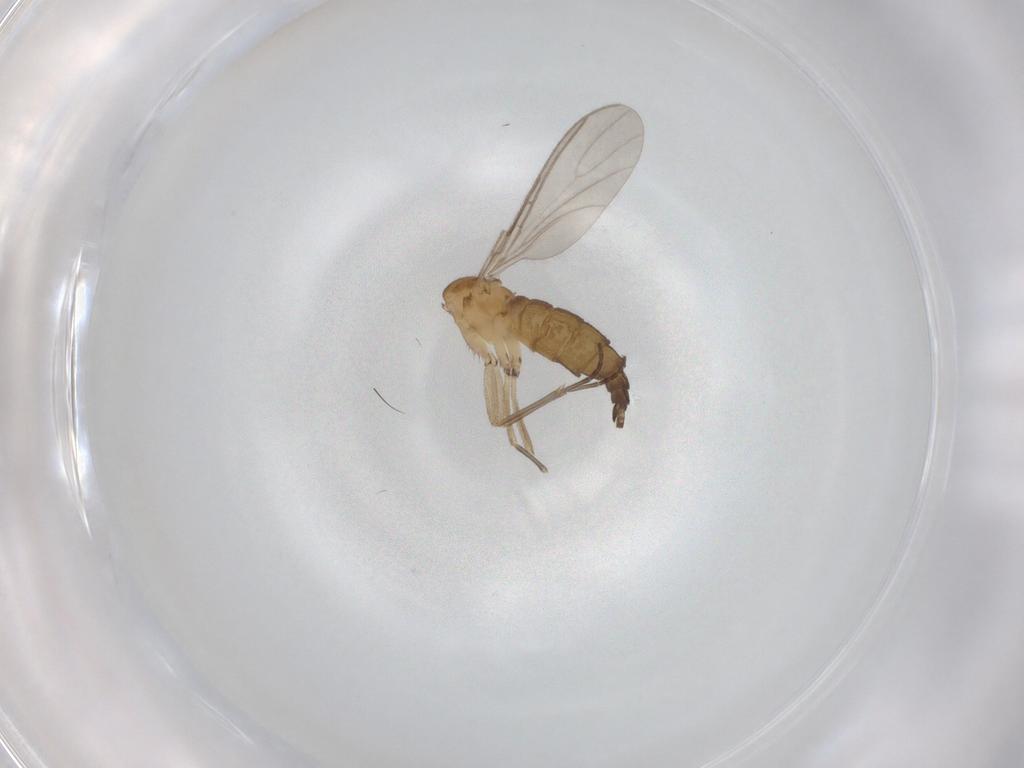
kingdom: Animalia
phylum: Arthropoda
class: Insecta
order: Diptera
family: Sciaridae
